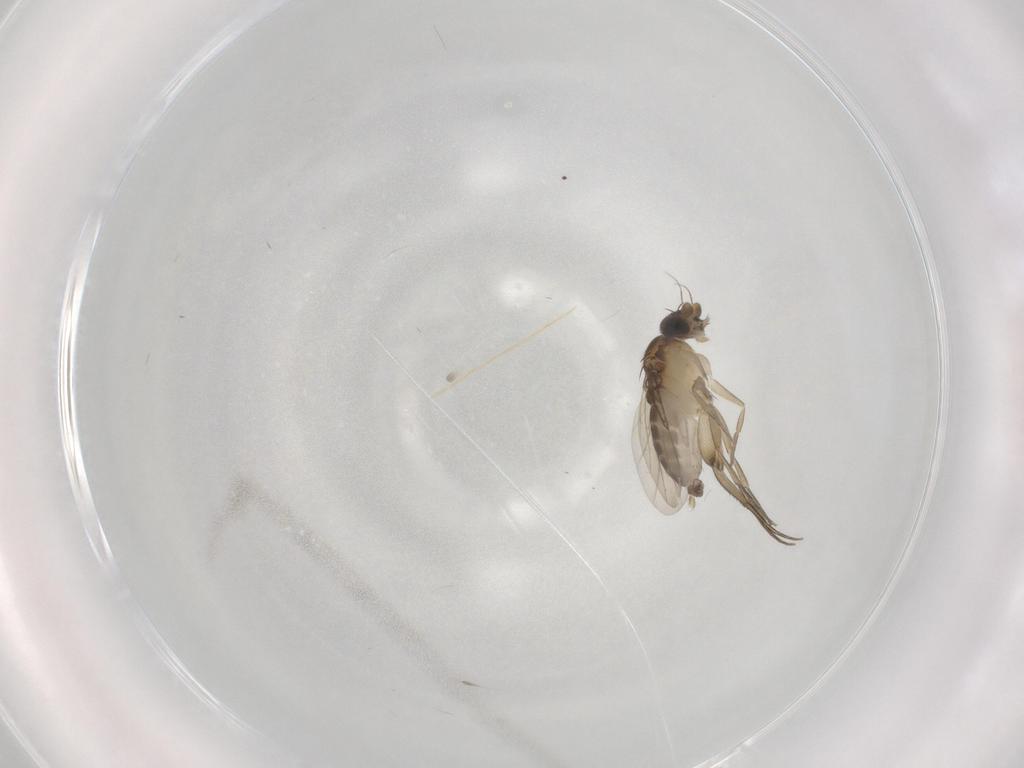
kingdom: Animalia
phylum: Arthropoda
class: Insecta
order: Diptera
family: Phoridae
